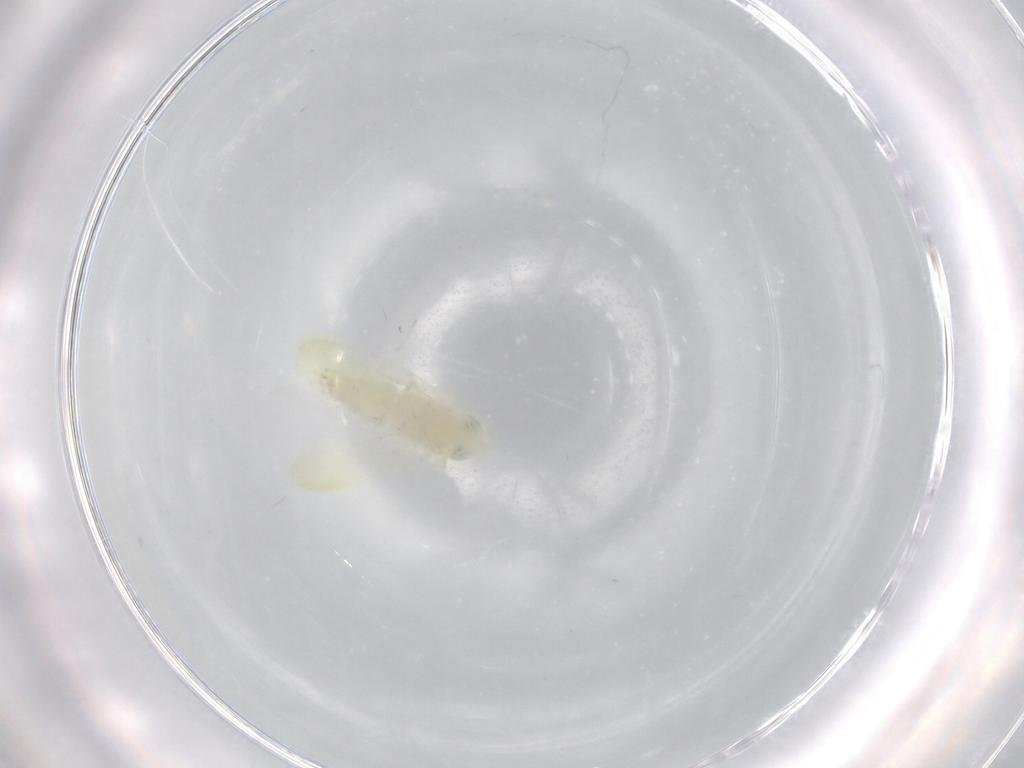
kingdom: Animalia
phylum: Arthropoda
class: Insecta
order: Hemiptera
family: Cicadellidae
